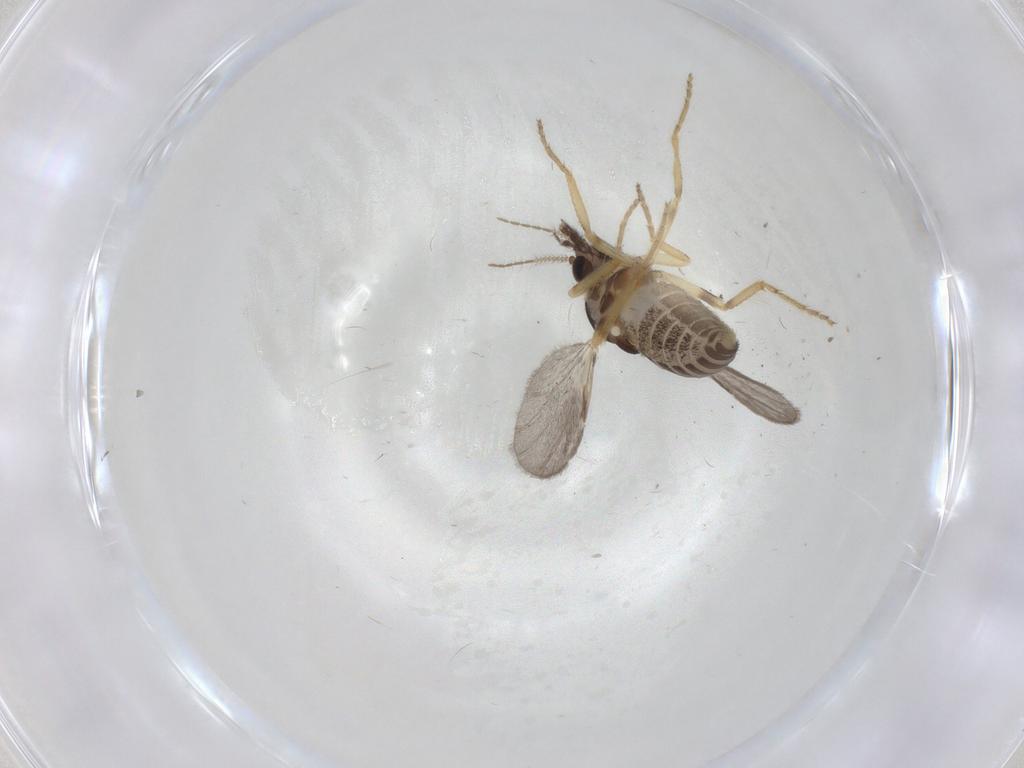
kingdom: Animalia
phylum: Arthropoda
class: Insecta
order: Diptera
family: Ceratopogonidae
